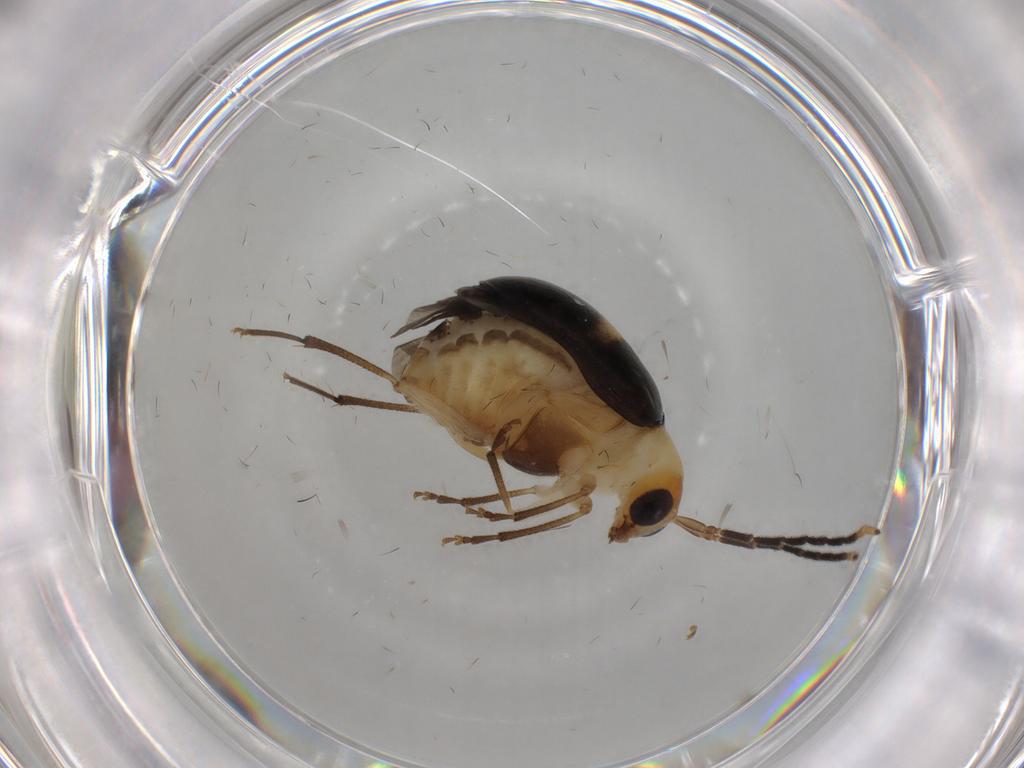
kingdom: Animalia
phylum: Arthropoda
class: Insecta
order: Coleoptera
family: Chrysomelidae
